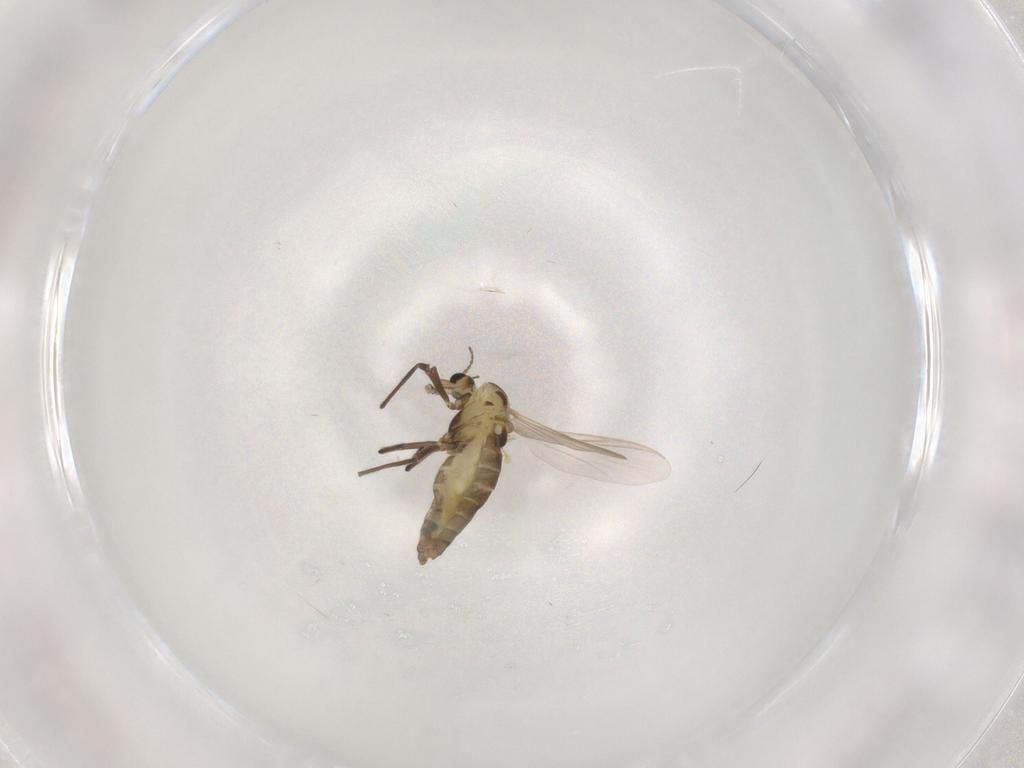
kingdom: Animalia
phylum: Arthropoda
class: Insecta
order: Diptera
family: Chironomidae
